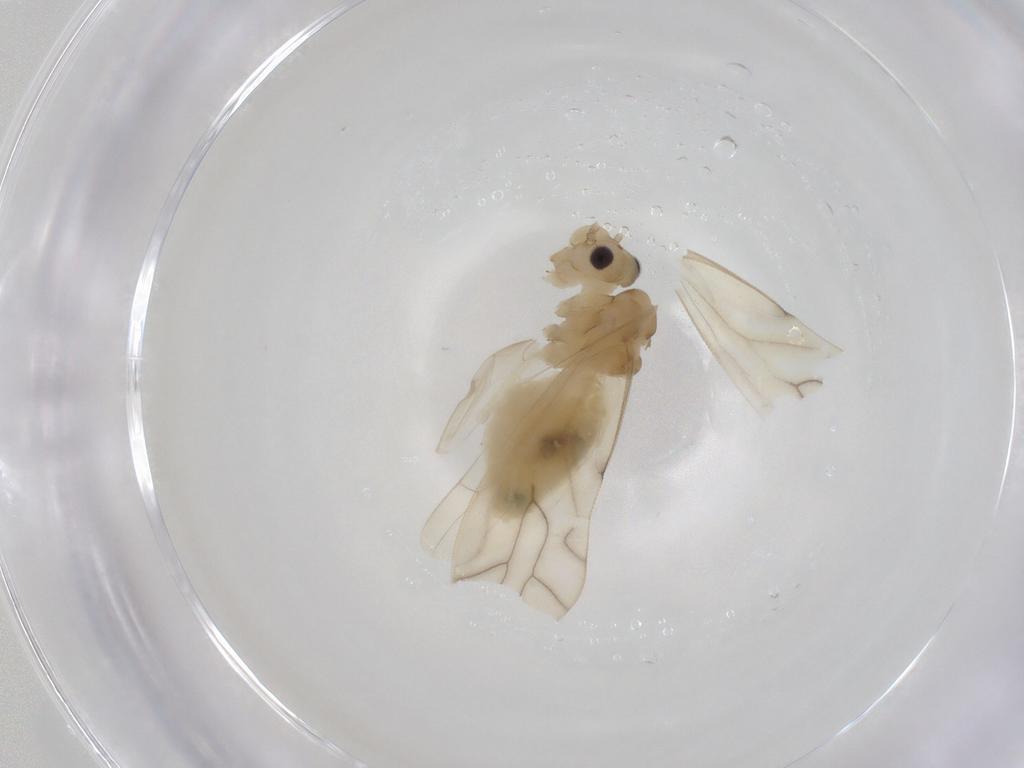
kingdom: Animalia
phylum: Arthropoda
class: Insecta
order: Psocodea
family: Caeciliusidae
